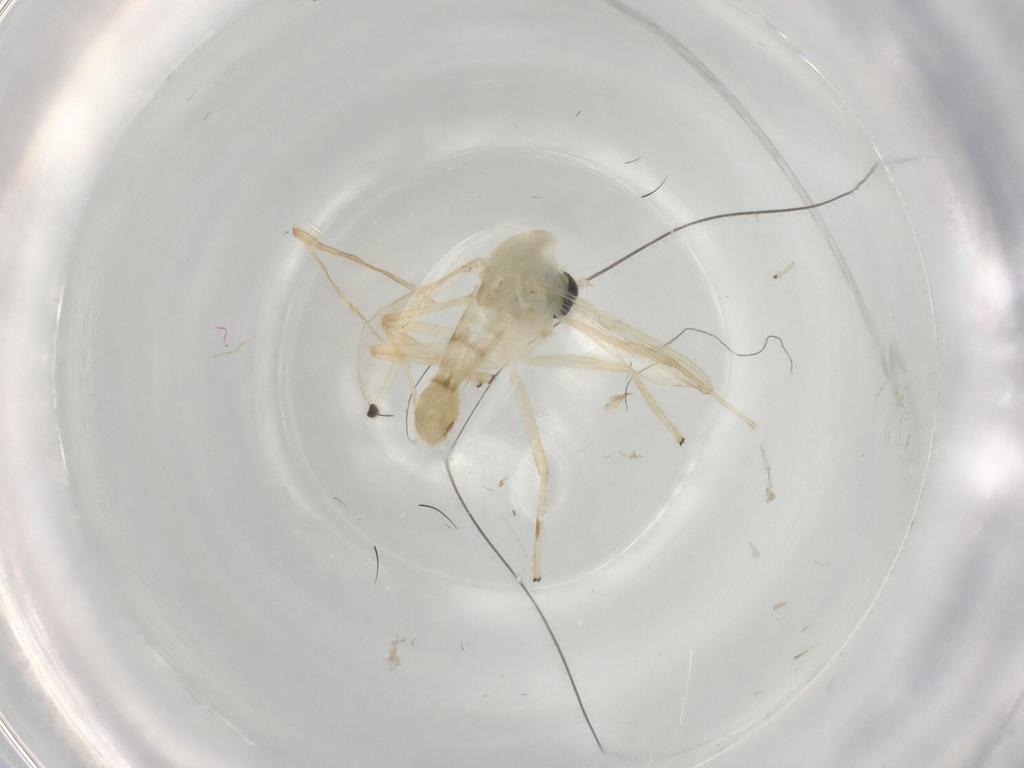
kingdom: Animalia
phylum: Arthropoda
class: Insecta
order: Diptera
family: Chironomidae
